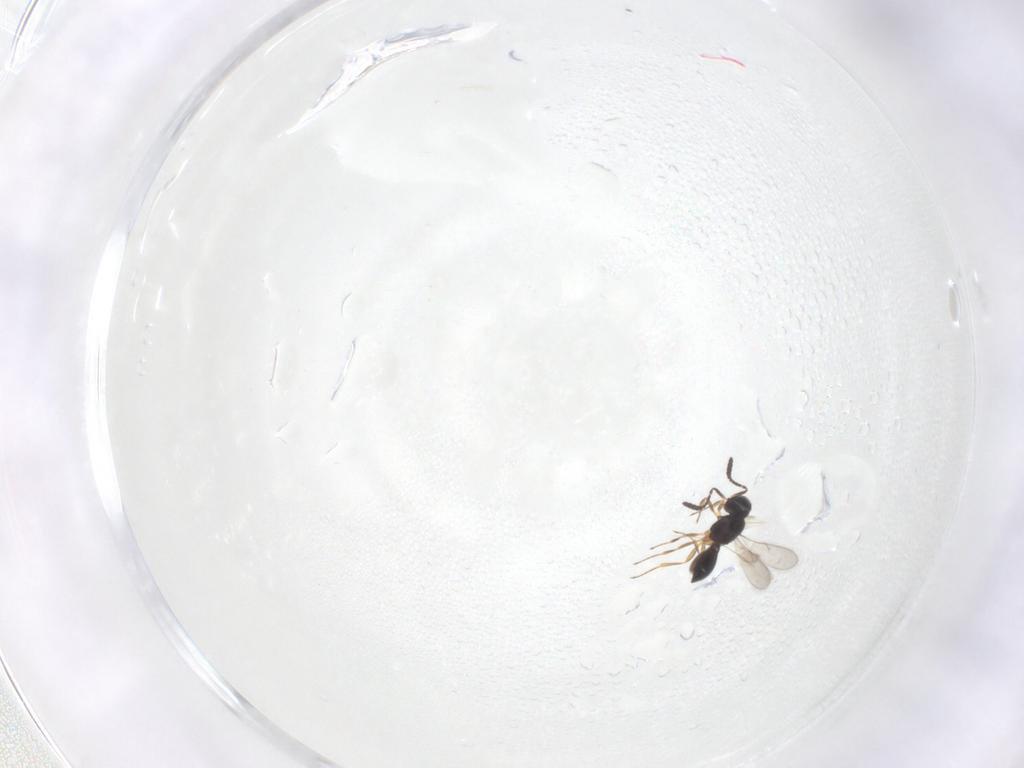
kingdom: Animalia
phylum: Arthropoda
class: Insecta
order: Hymenoptera
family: Scelionidae
